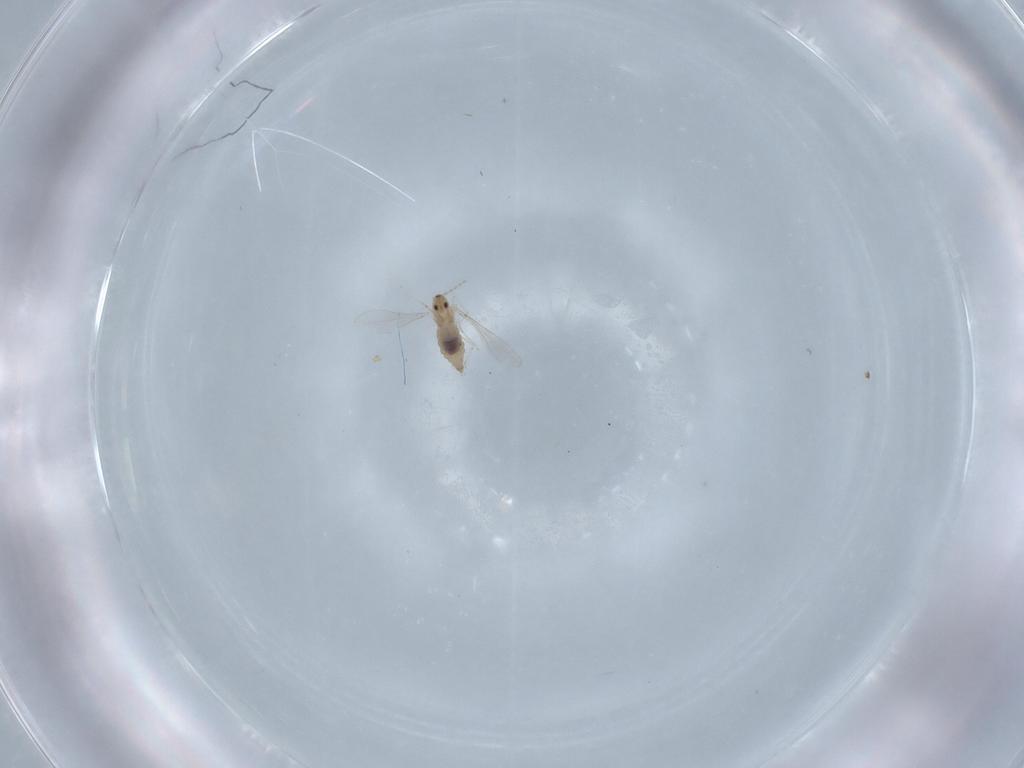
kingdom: Animalia
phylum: Arthropoda
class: Insecta
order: Diptera
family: Cecidomyiidae
